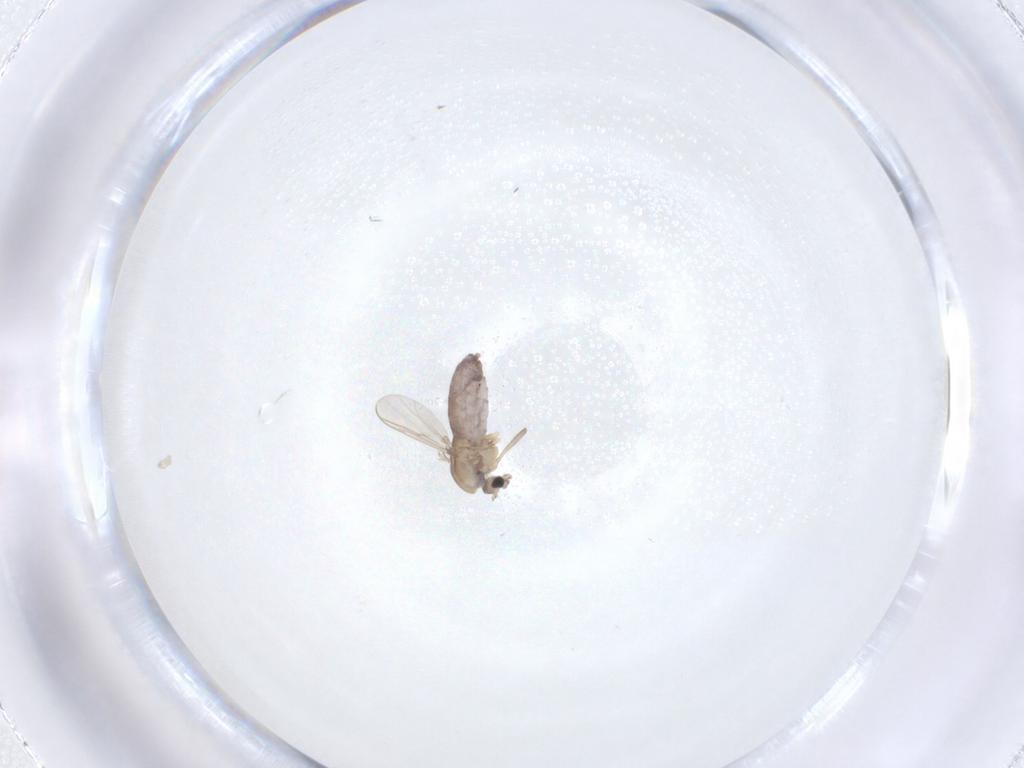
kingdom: Animalia
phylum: Arthropoda
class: Insecta
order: Diptera
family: Chironomidae
